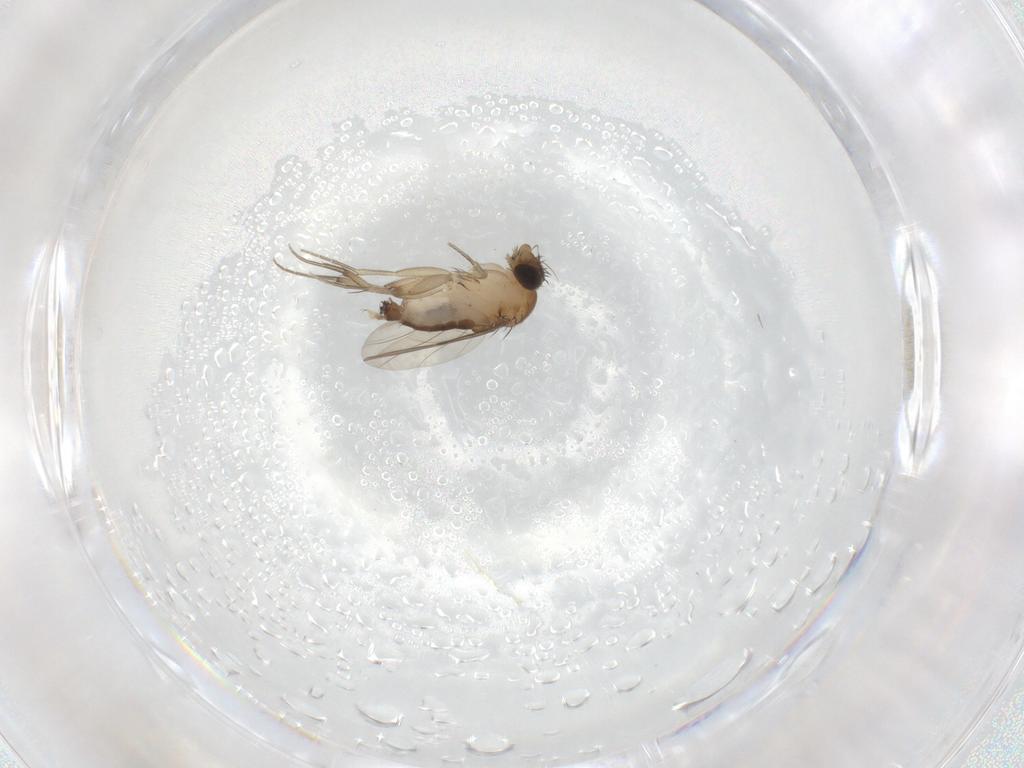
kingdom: Animalia
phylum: Arthropoda
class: Insecta
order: Diptera
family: Phoridae
